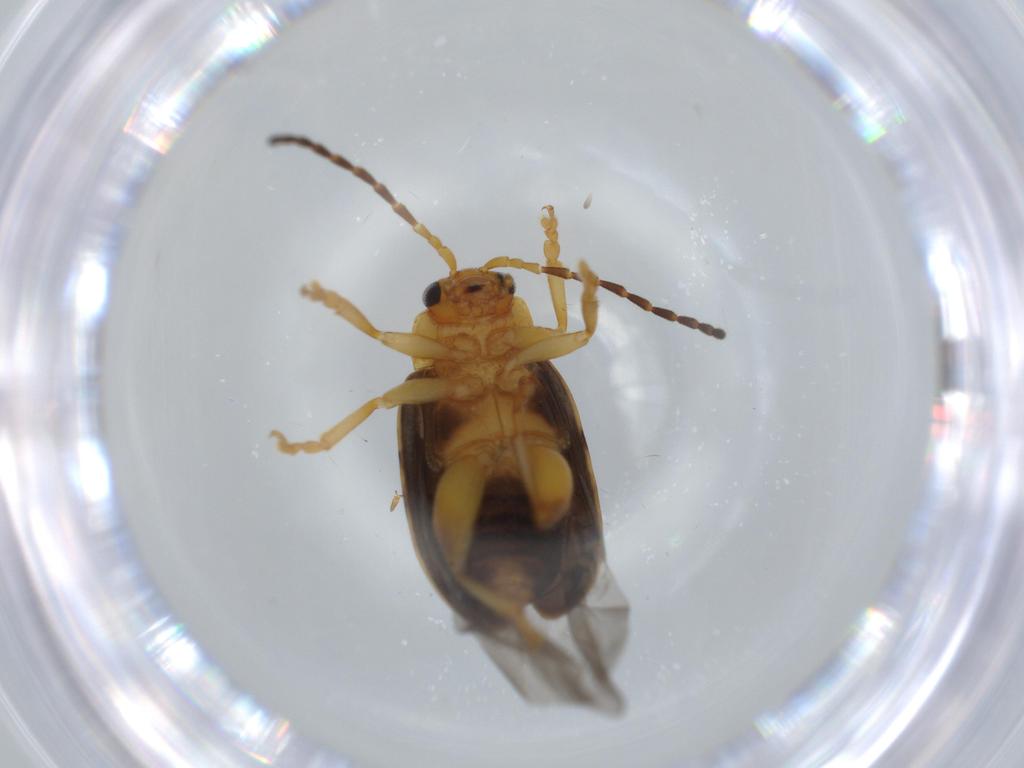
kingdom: Animalia
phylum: Arthropoda
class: Insecta
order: Coleoptera
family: Chrysomelidae
